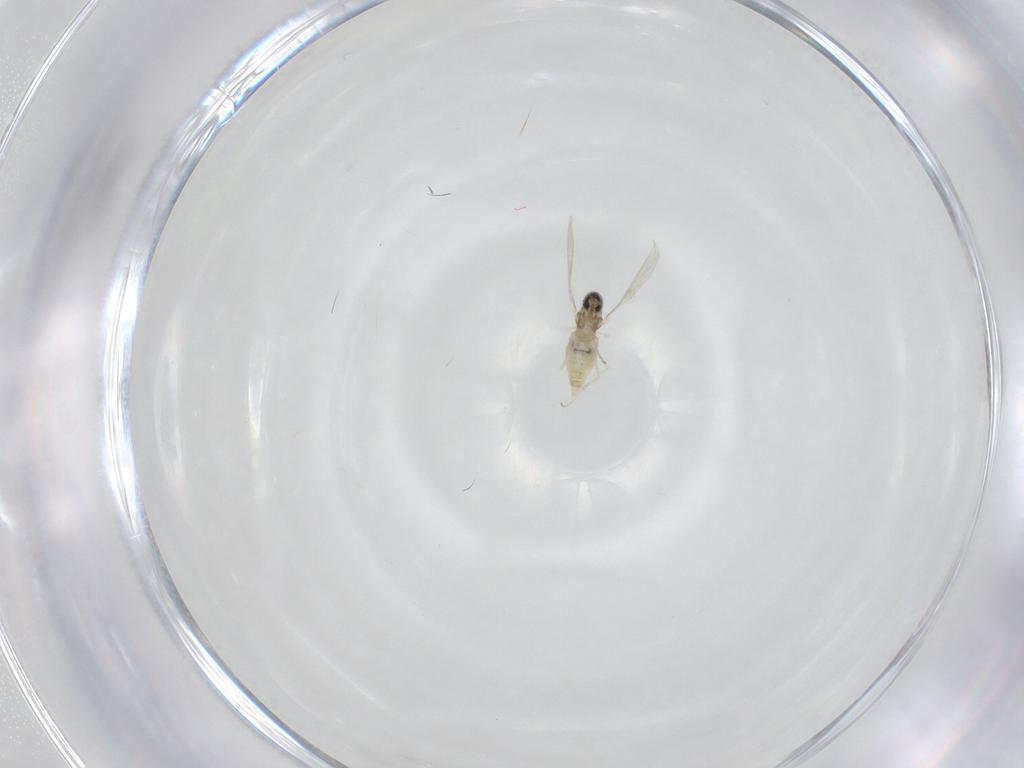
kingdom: Animalia
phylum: Arthropoda
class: Insecta
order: Diptera
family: Cecidomyiidae
